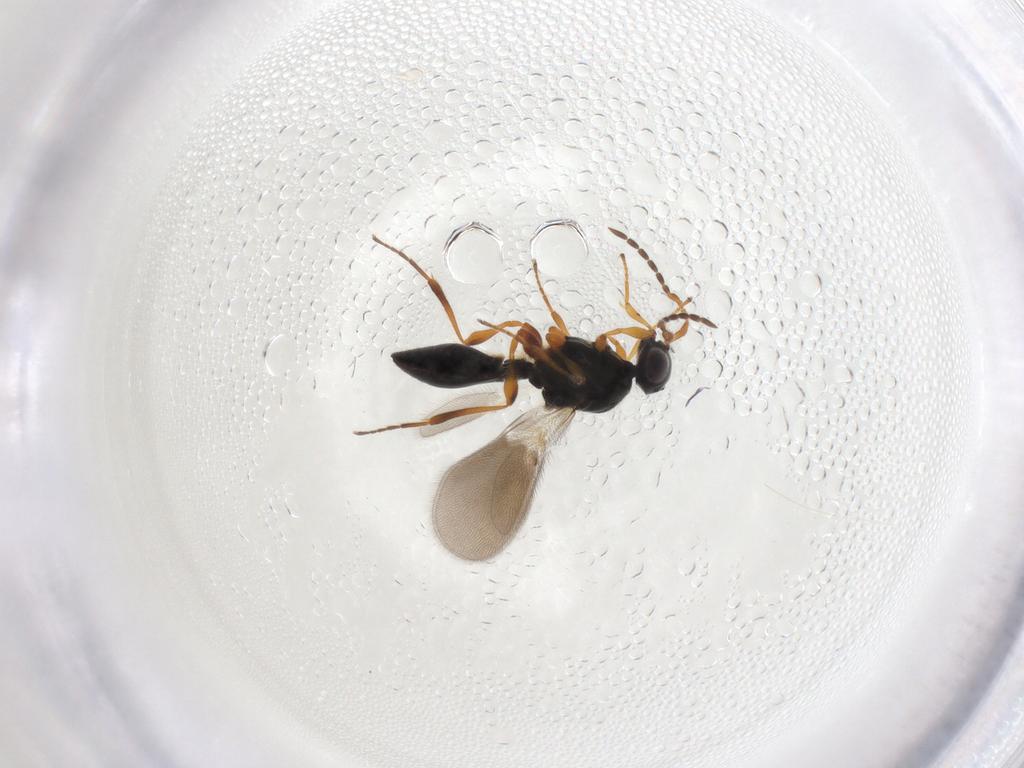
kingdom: Animalia
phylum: Arthropoda
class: Insecta
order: Hymenoptera
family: Platygastridae
